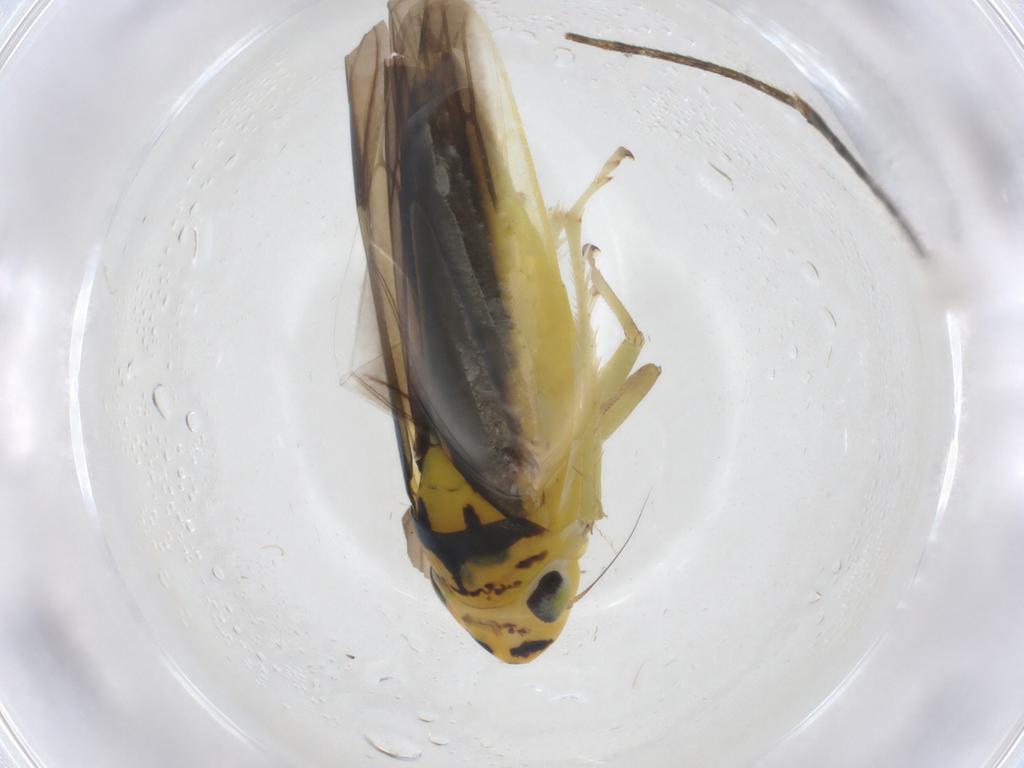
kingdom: Animalia
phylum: Arthropoda
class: Insecta
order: Hemiptera
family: Cicadellidae
